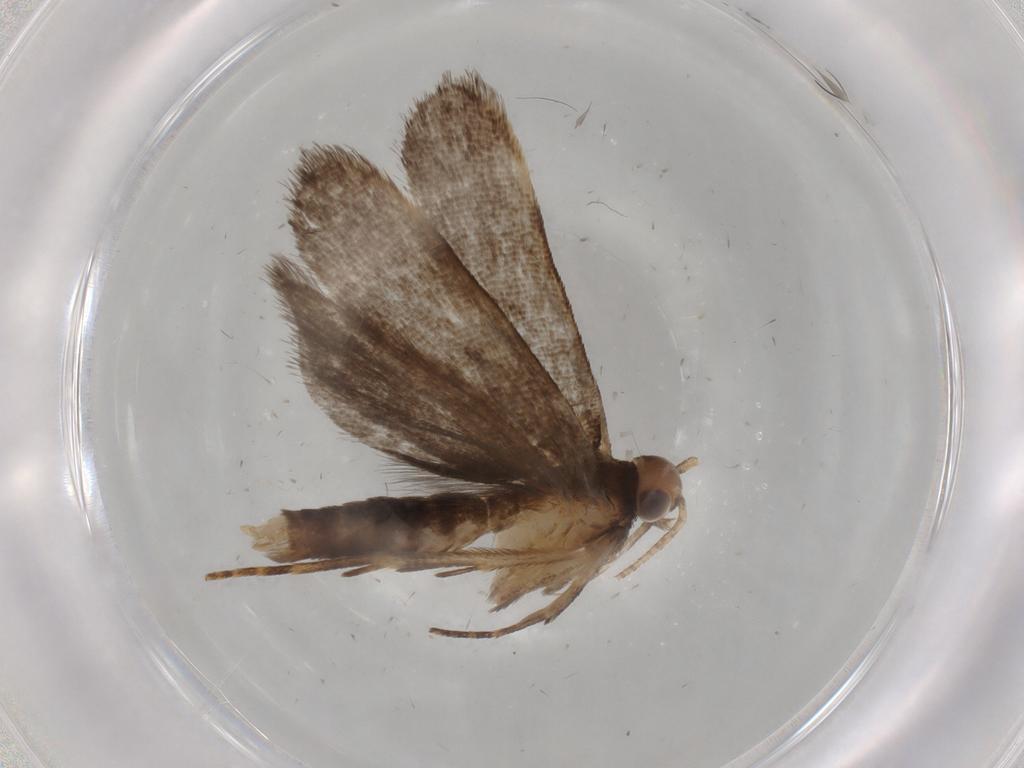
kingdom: Animalia
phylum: Arthropoda
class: Insecta
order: Lepidoptera
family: Gelechiidae
